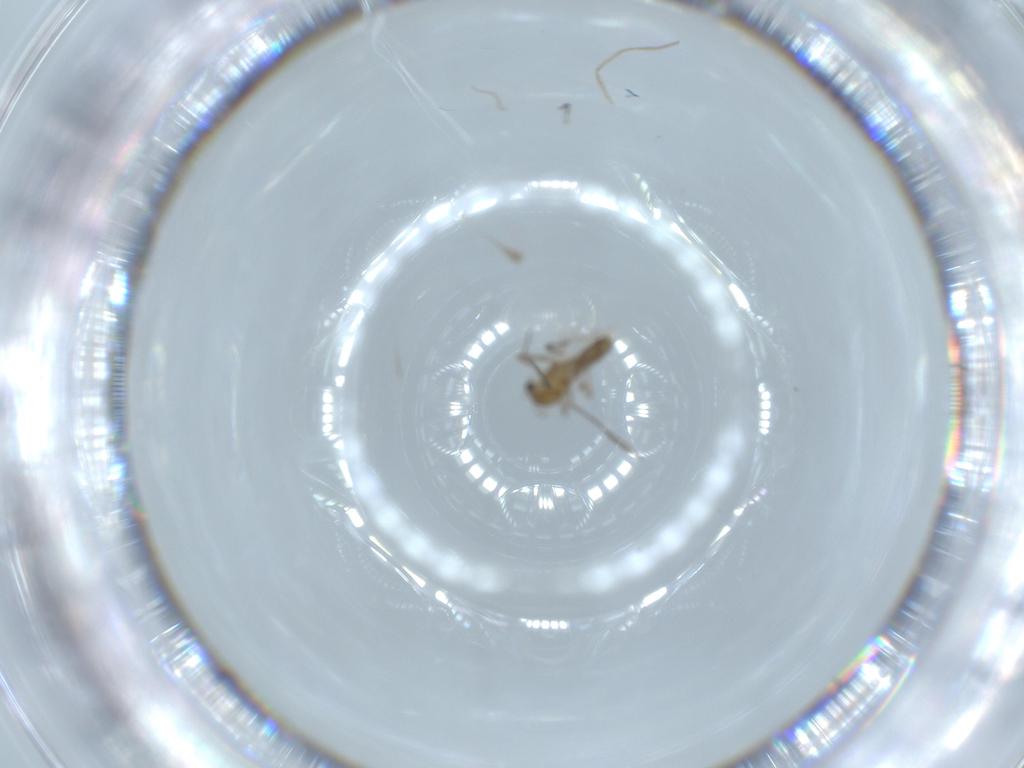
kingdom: Animalia
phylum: Arthropoda
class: Insecta
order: Diptera
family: Chironomidae
